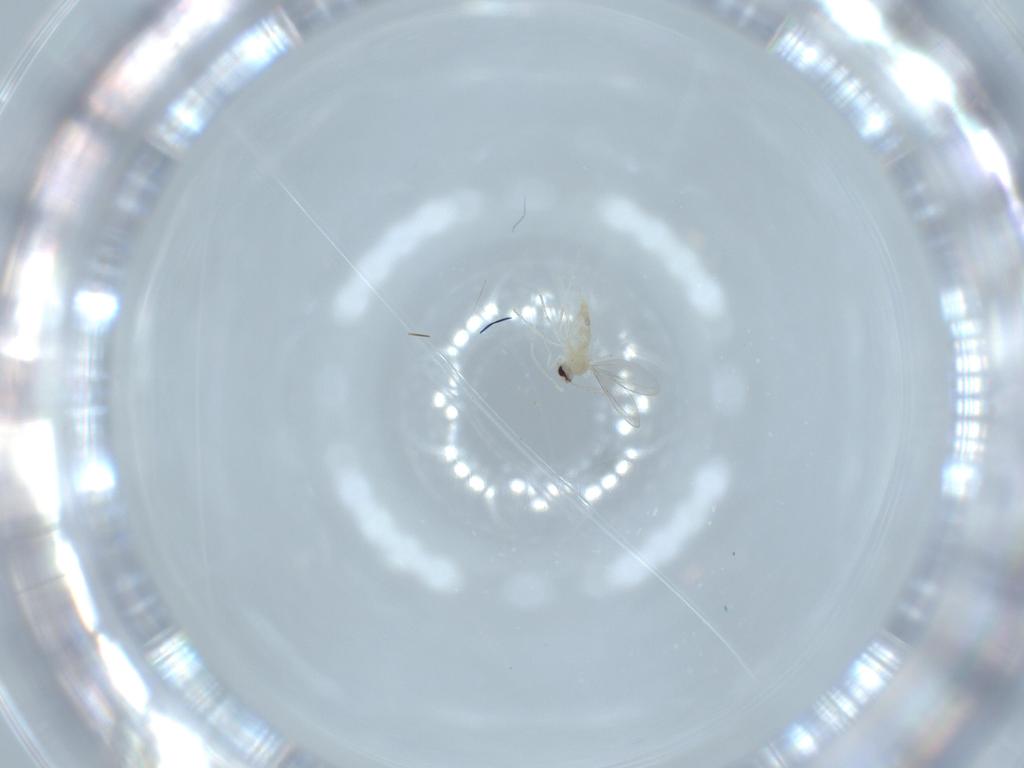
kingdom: Animalia
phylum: Arthropoda
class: Insecta
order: Diptera
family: Cecidomyiidae
